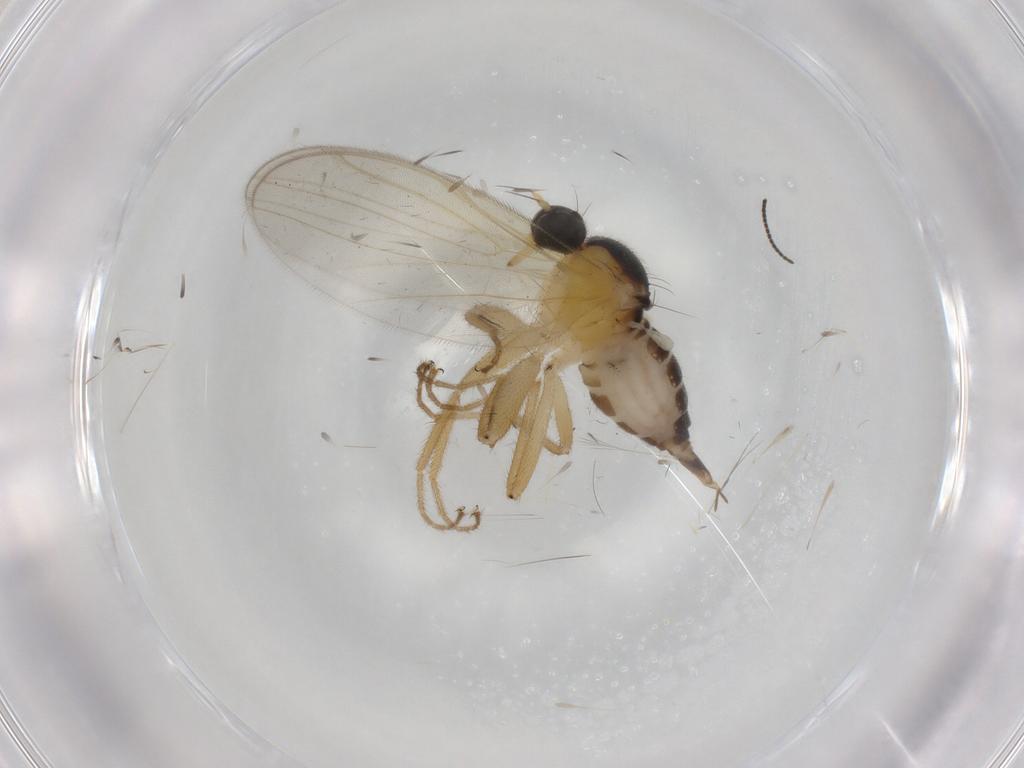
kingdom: Animalia
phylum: Arthropoda
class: Insecta
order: Diptera
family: Hybotidae
